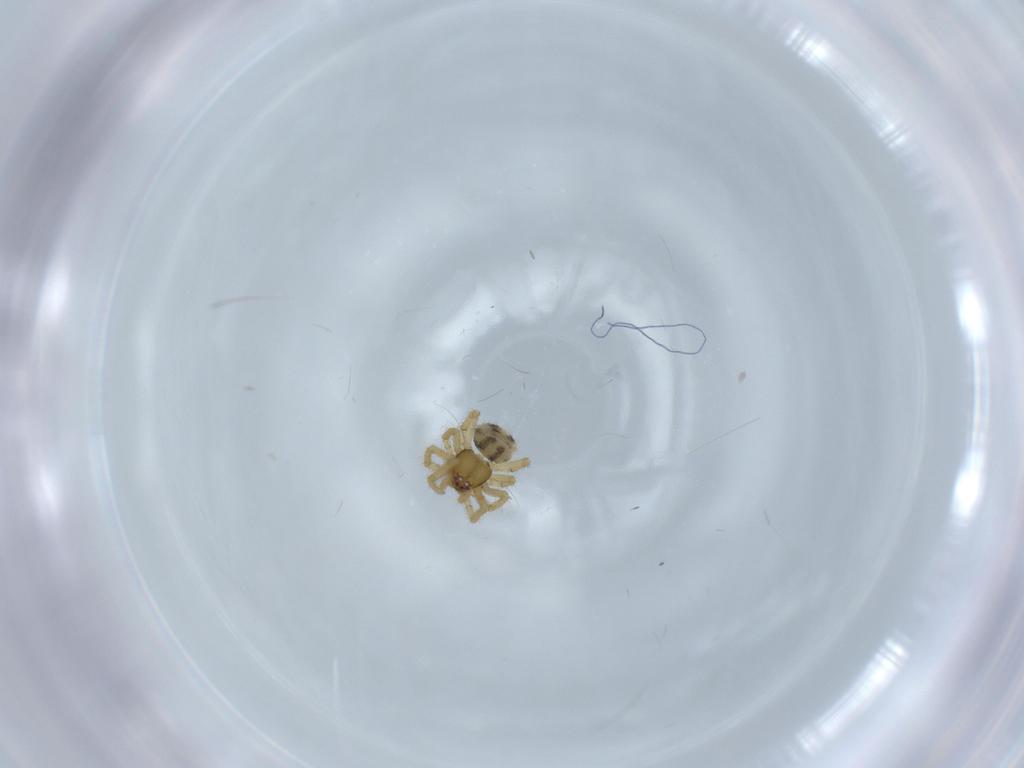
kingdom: Animalia
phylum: Arthropoda
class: Arachnida
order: Araneae
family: Theridiidae
